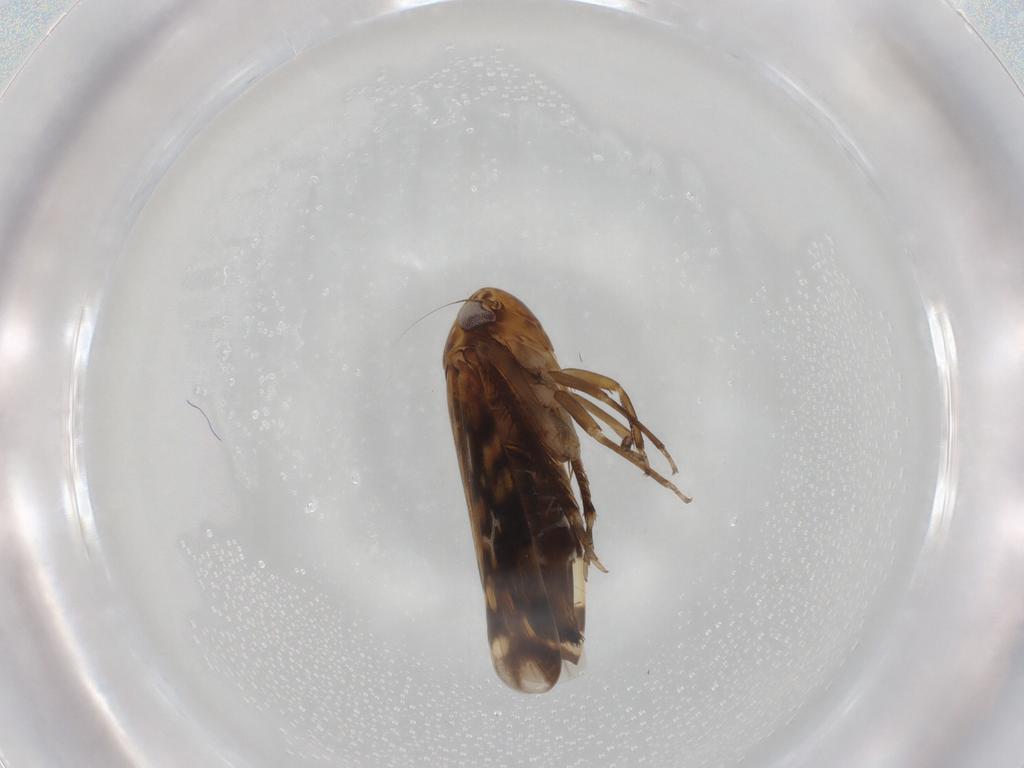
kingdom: Animalia
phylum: Arthropoda
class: Insecta
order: Hemiptera
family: Cicadellidae
